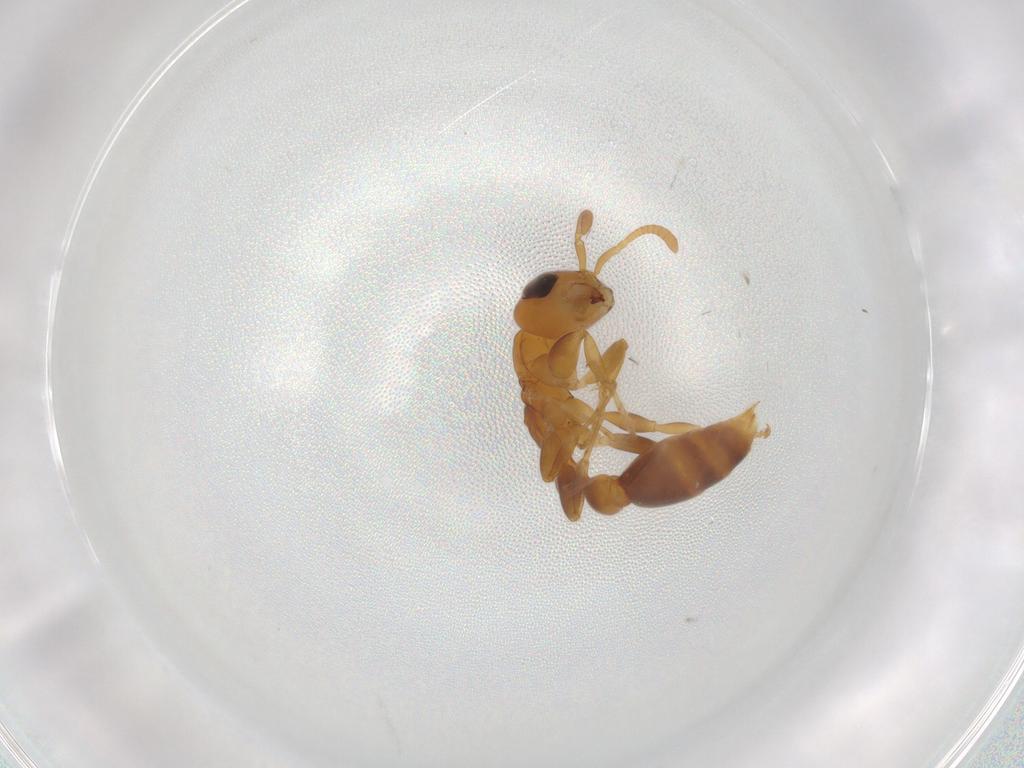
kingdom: Animalia
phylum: Arthropoda
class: Insecta
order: Hymenoptera
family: Formicidae
